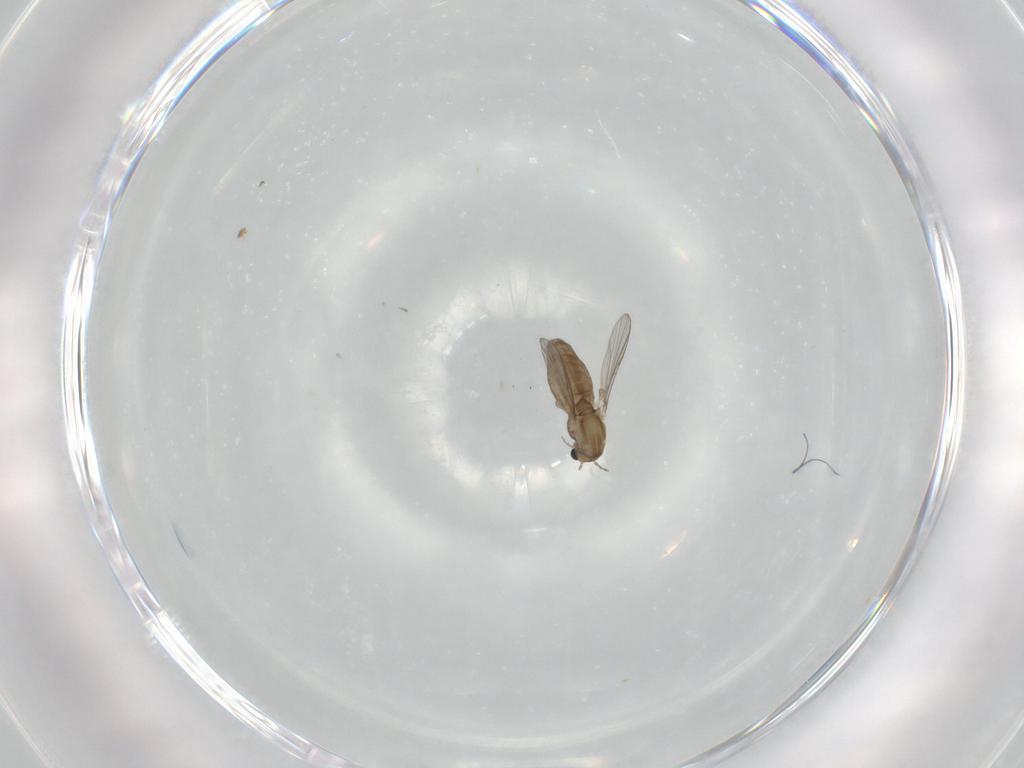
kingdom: Animalia
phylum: Arthropoda
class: Insecta
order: Diptera
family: Chironomidae
